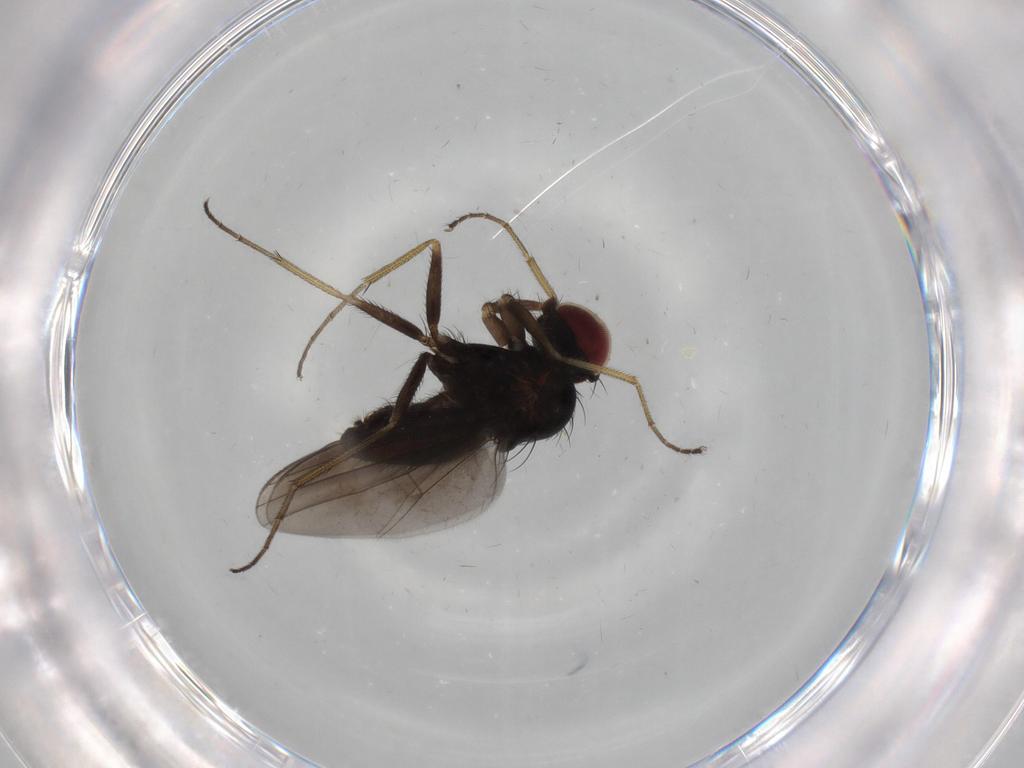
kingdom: Animalia
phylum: Arthropoda
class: Insecta
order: Diptera
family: Dolichopodidae
